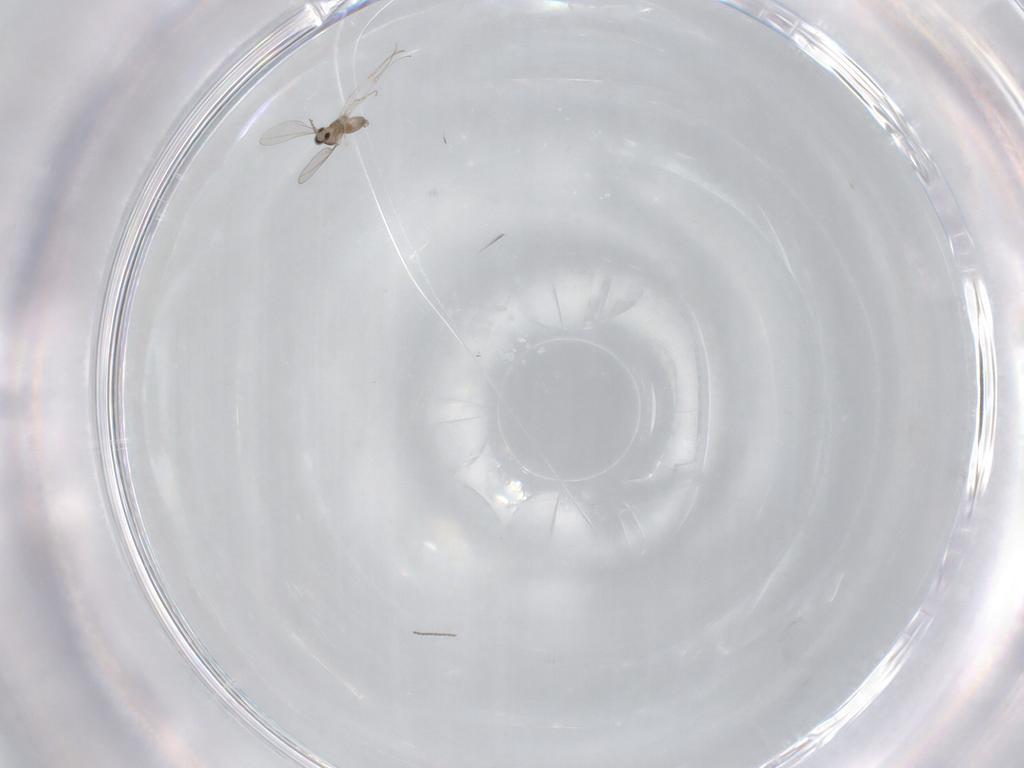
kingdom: Animalia
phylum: Arthropoda
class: Insecta
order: Diptera
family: Cecidomyiidae
